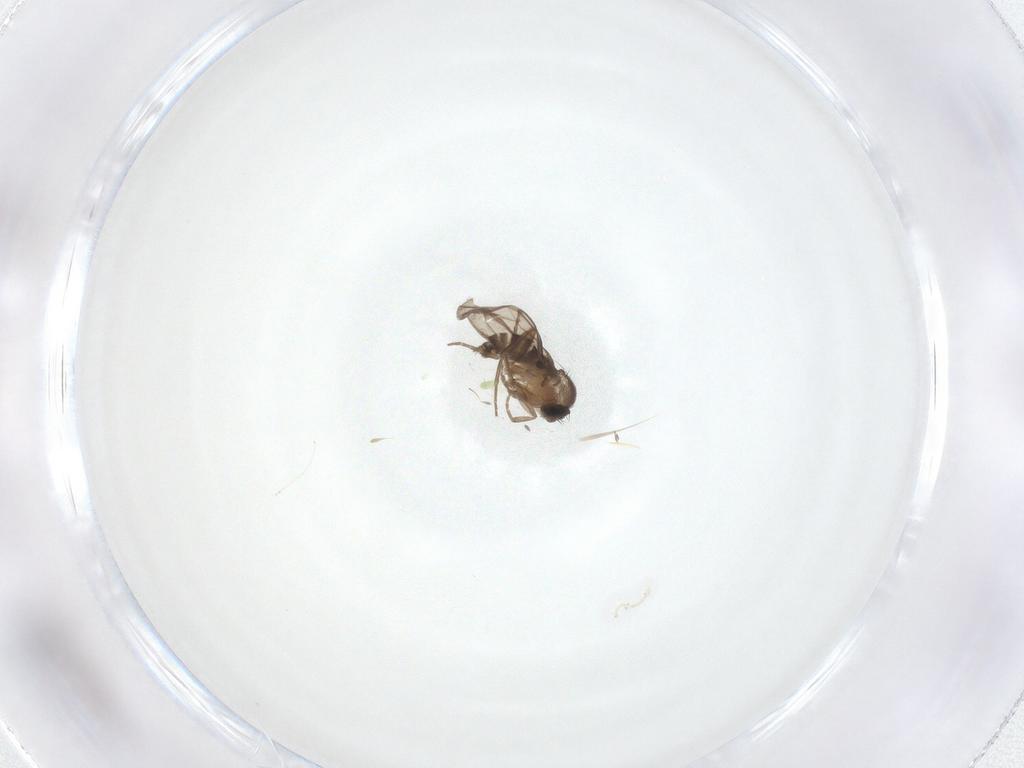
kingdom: Animalia
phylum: Arthropoda
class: Insecta
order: Diptera
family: Phoridae
